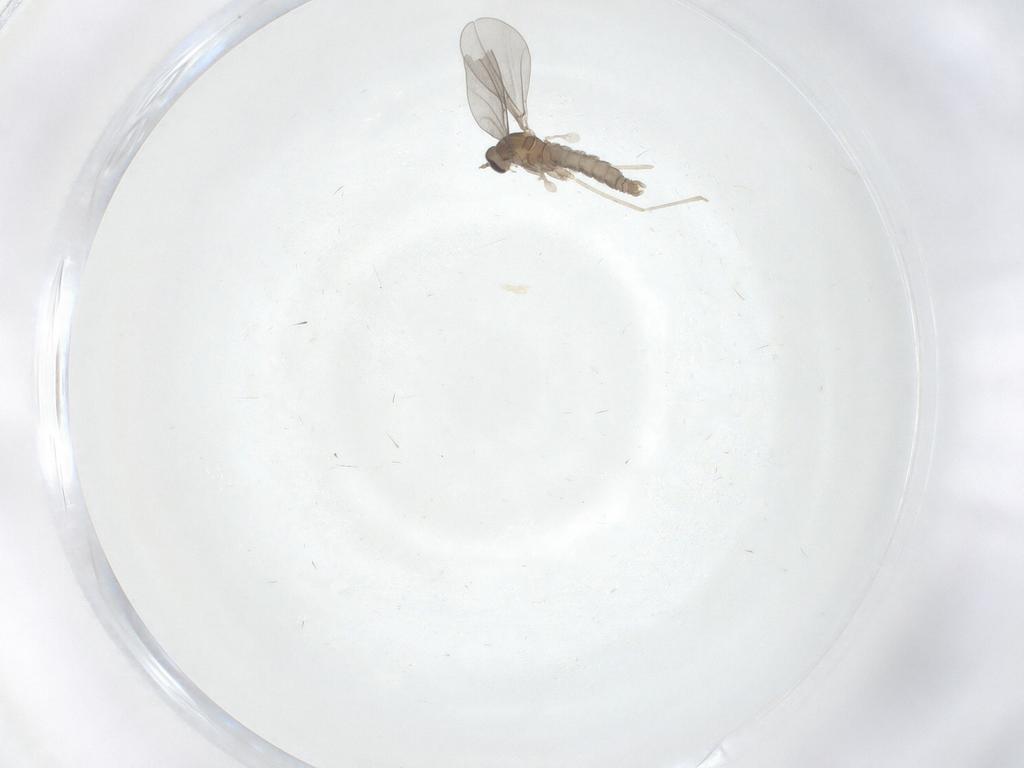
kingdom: Animalia
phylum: Arthropoda
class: Insecta
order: Diptera
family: Cecidomyiidae
